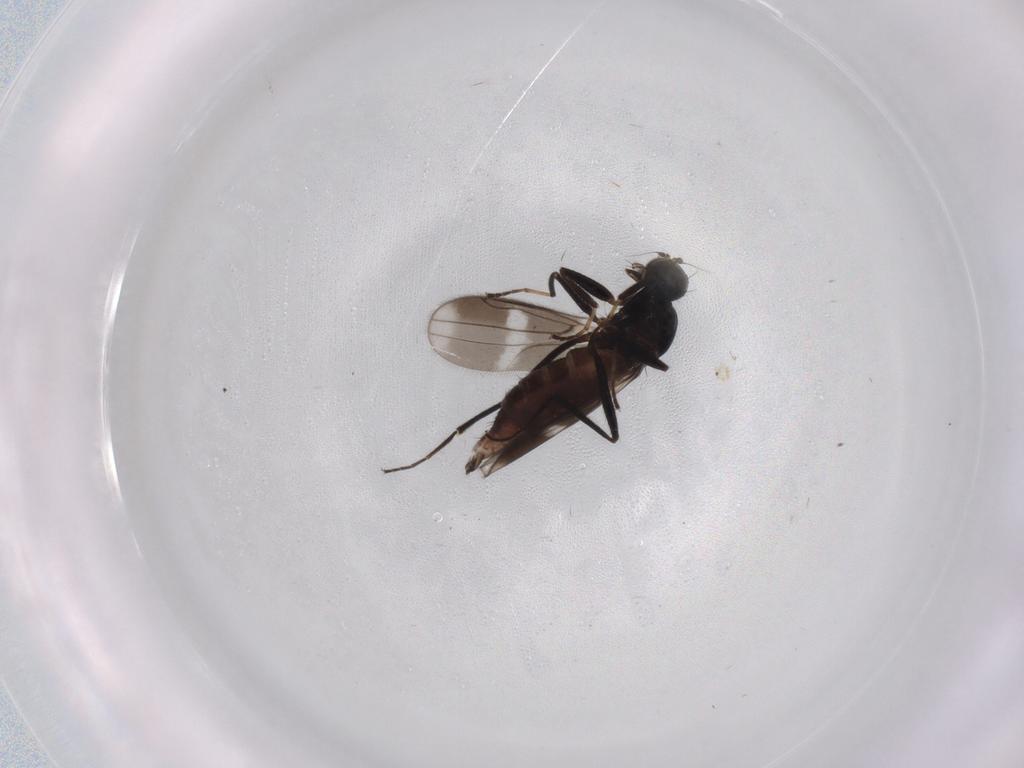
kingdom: Animalia
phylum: Arthropoda
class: Insecta
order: Diptera
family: Hybotidae
